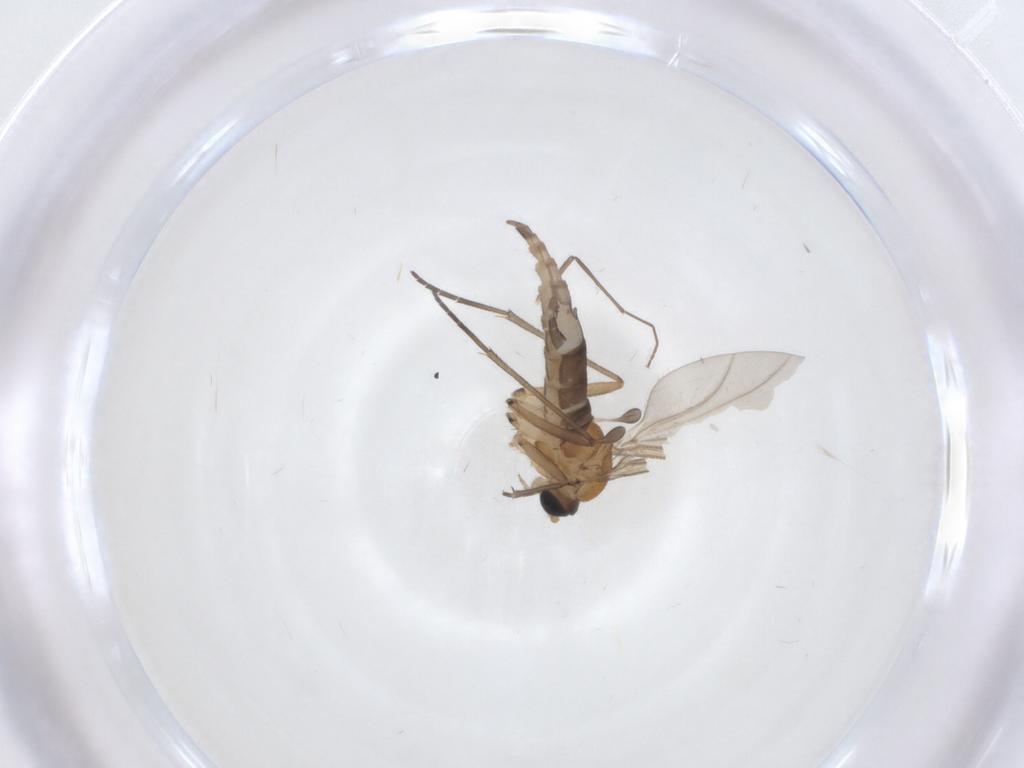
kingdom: Animalia
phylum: Arthropoda
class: Insecta
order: Diptera
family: Sciaridae
